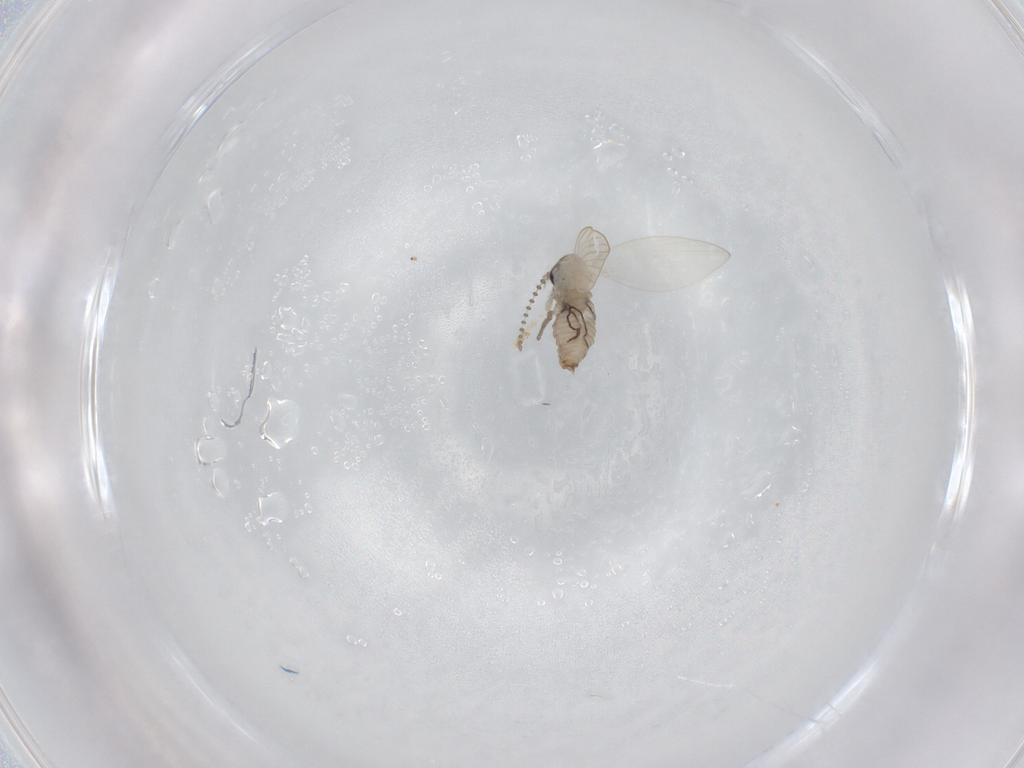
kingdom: Animalia
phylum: Arthropoda
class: Insecta
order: Diptera
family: Psychodidae
